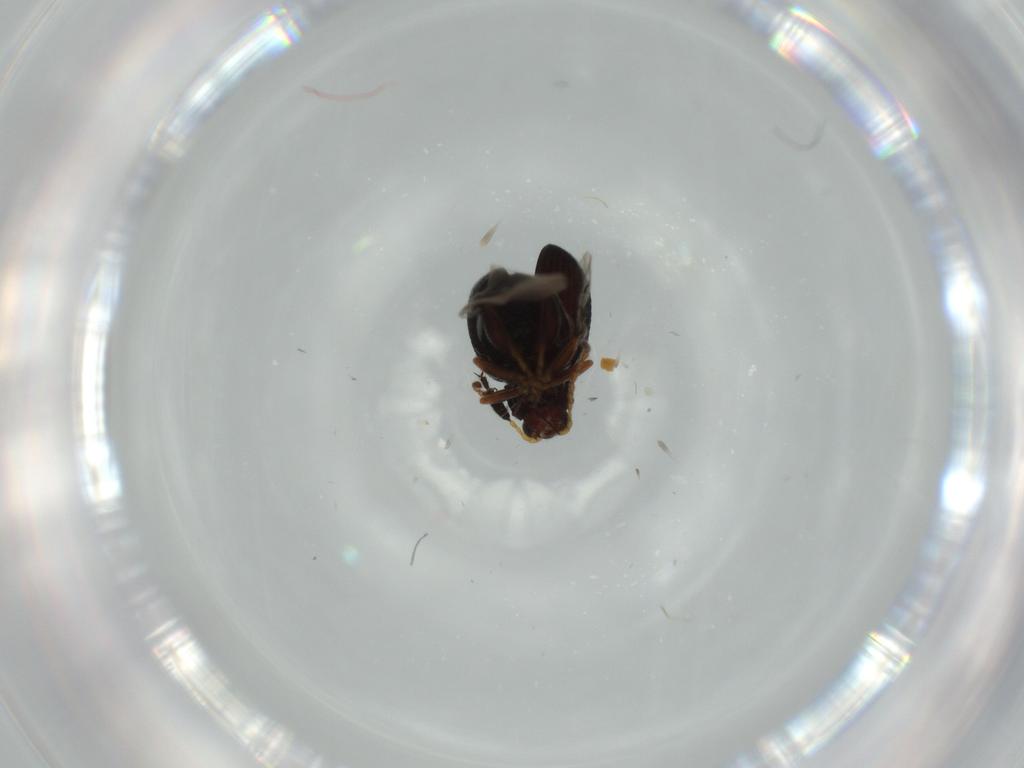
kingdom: Animalia
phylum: Arthropoda
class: Insecta
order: Coleoptera
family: Chrysomelidae
